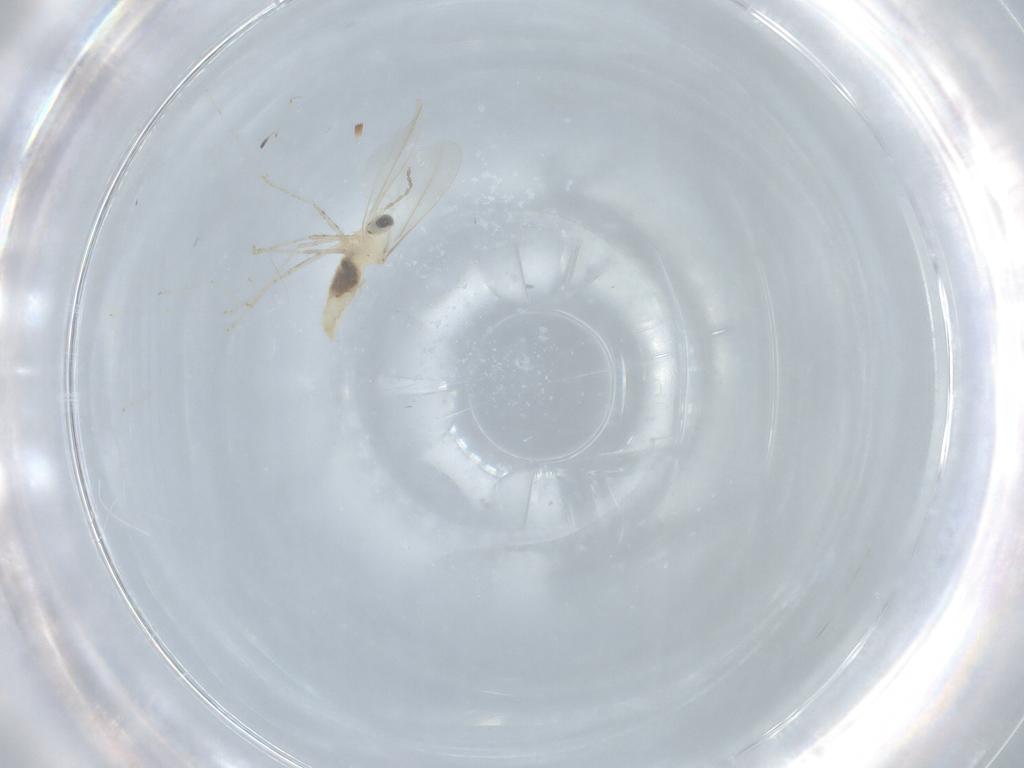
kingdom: Animalia
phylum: Arthropoda
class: Insecta
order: Diptera
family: Cecidomyiidae
